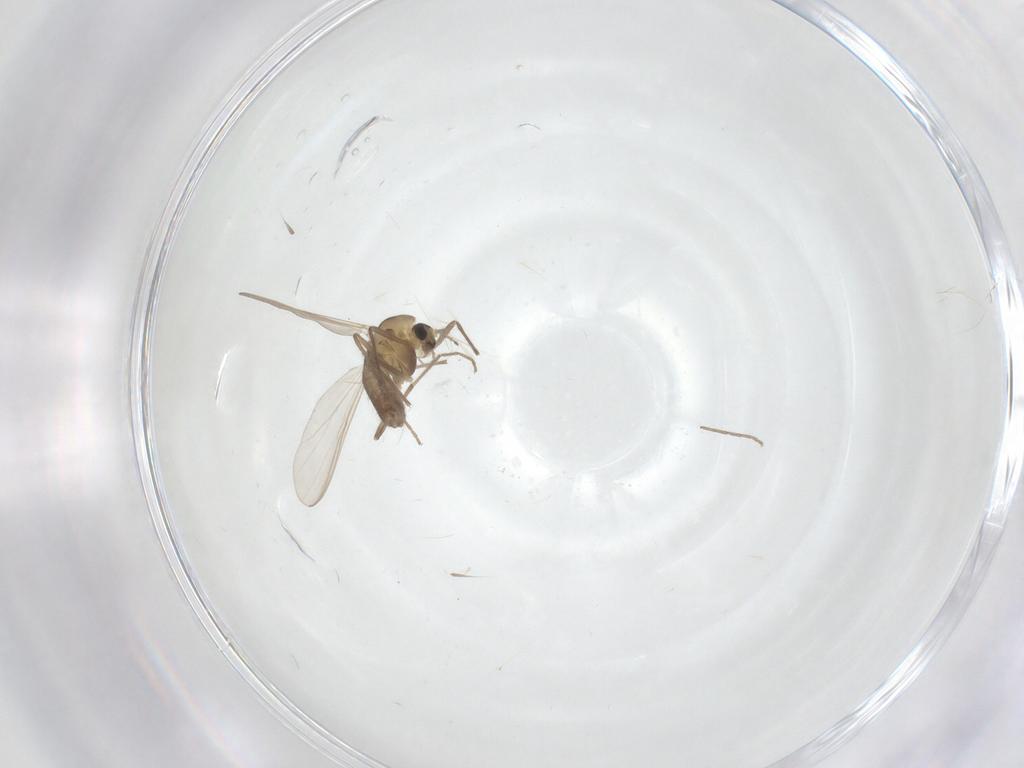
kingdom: Animalia
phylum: Arthropoda
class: Insecta
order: Diptera
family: Chironomidae
